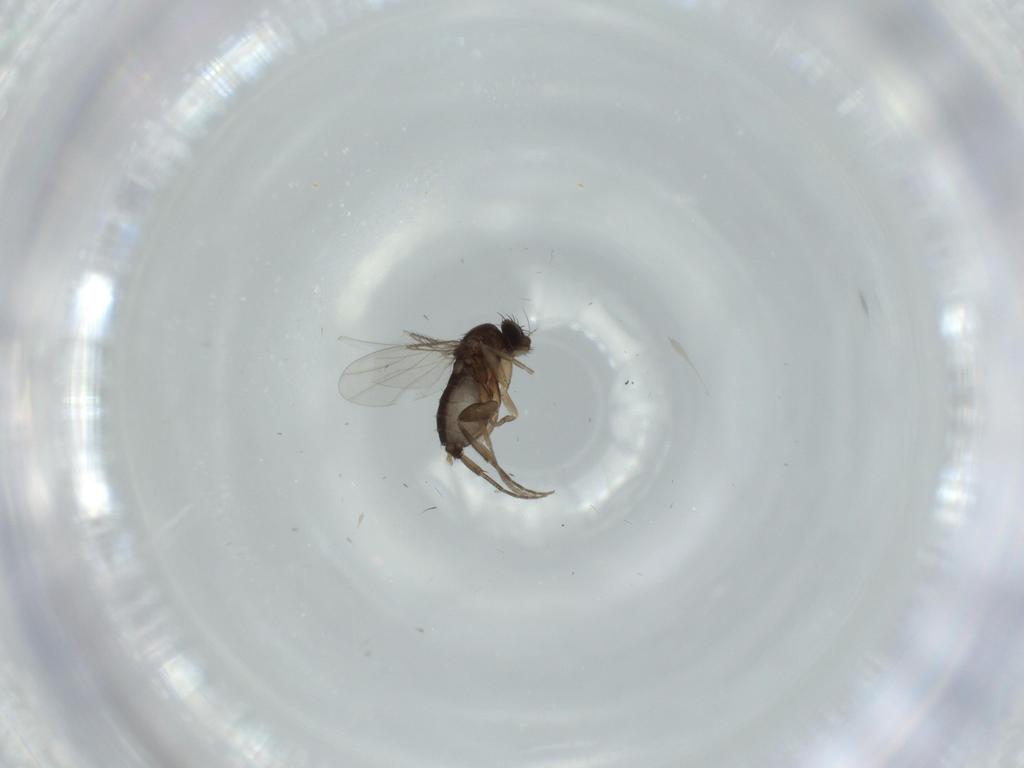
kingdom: Animalia
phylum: Arthropoda
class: Insecta
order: Diptera
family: Phoridae
